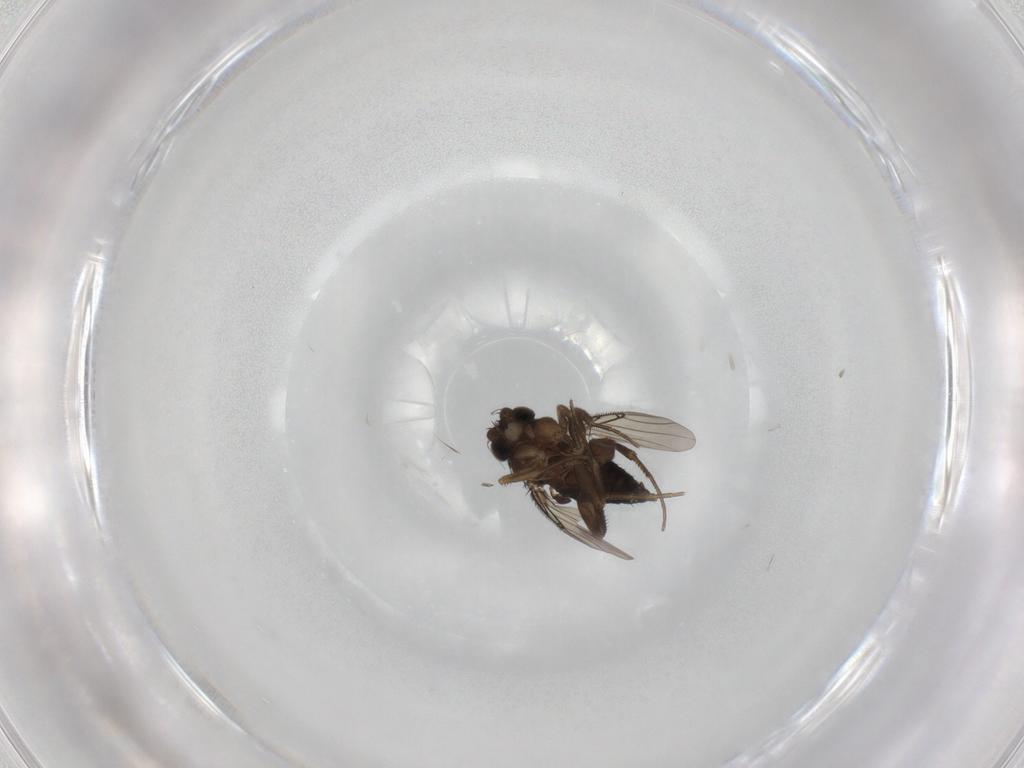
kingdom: Animalia
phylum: Arthropoda
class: Insecta
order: Diptera
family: Phoridae
